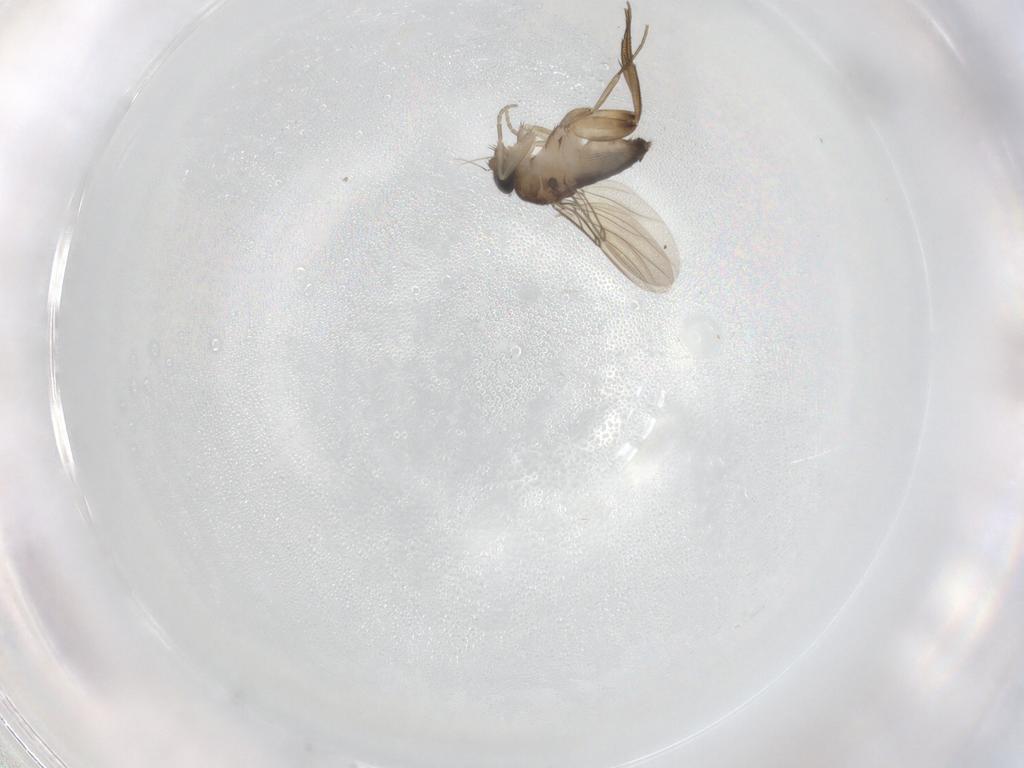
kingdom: Animalia
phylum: Arthropoda
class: Insecta
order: Diptera
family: Phoridae
